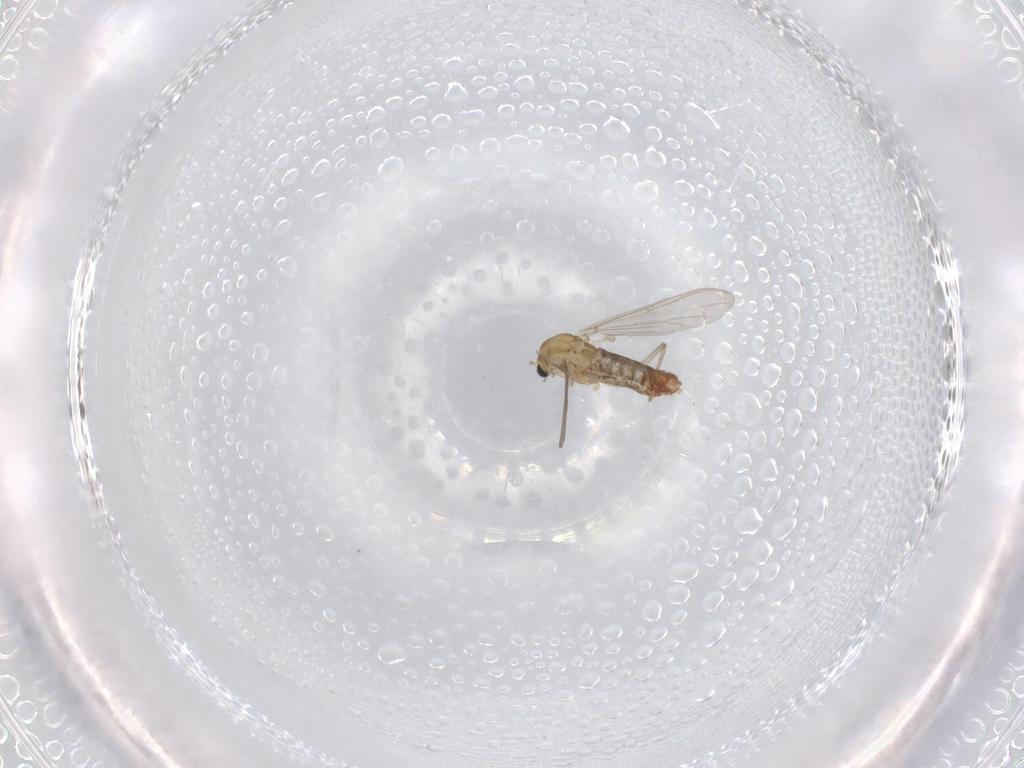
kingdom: Animalia
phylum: Arthropoda
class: Insecta
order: Diptera
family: Chironomidae
